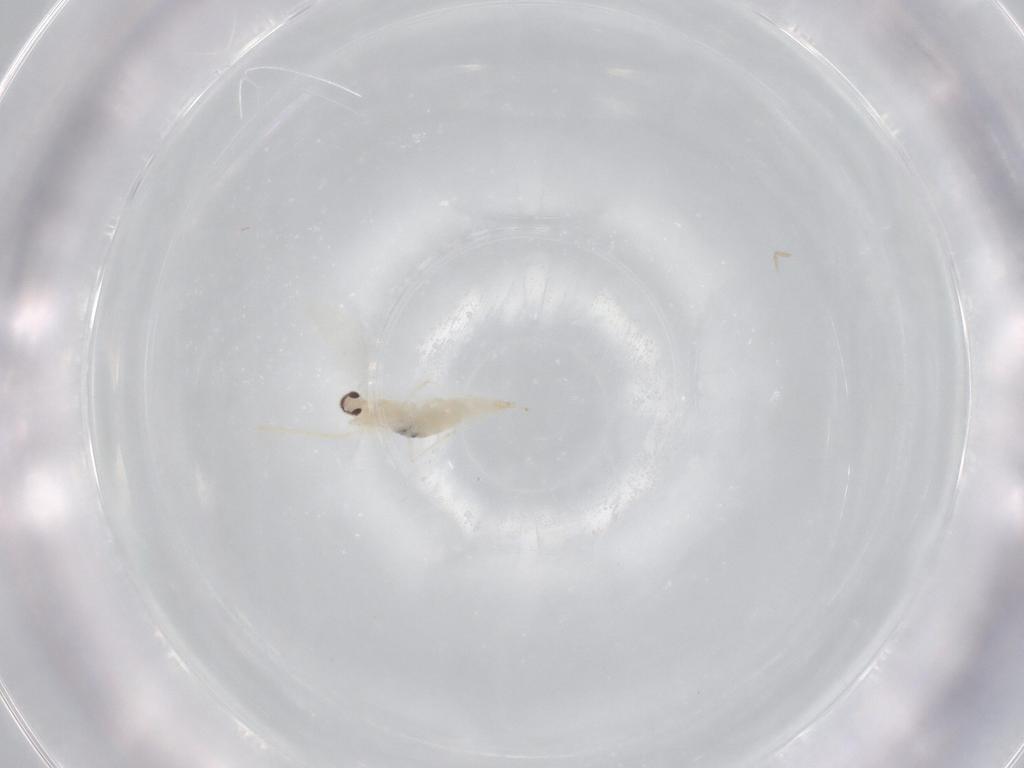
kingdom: Animalia
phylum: Arthropoda
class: Insecta
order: Diptera
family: Cecidomyiidae
